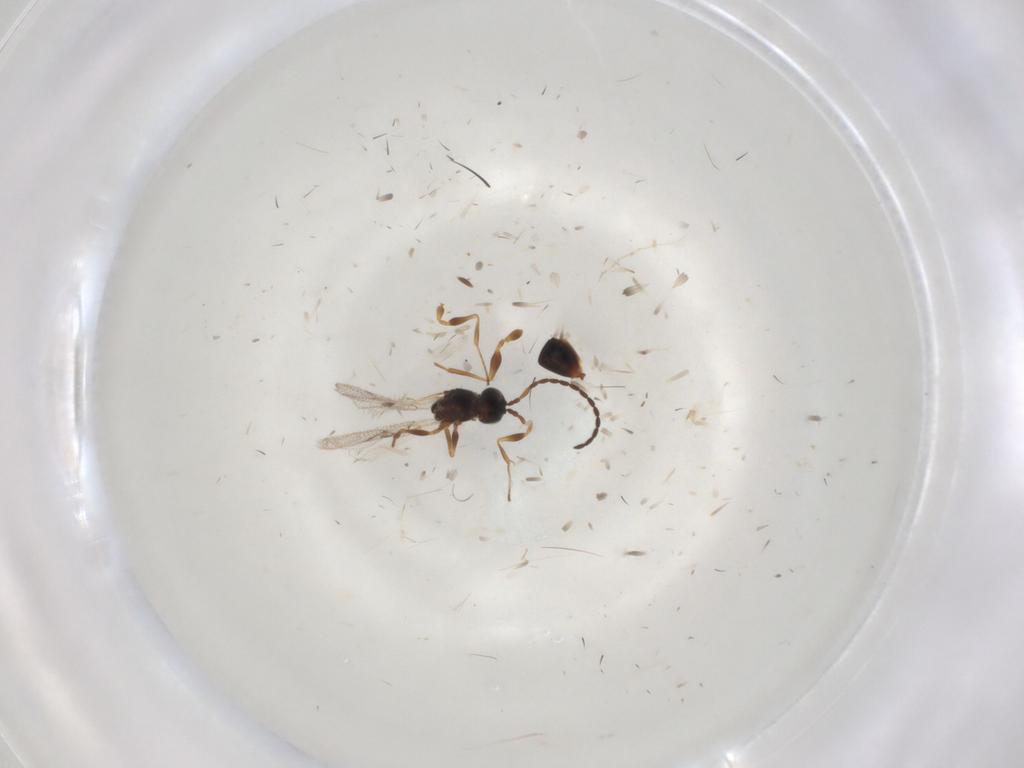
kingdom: Animalia
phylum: Arthropoda
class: Insecta
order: Hymenoptera
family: Figitidae
